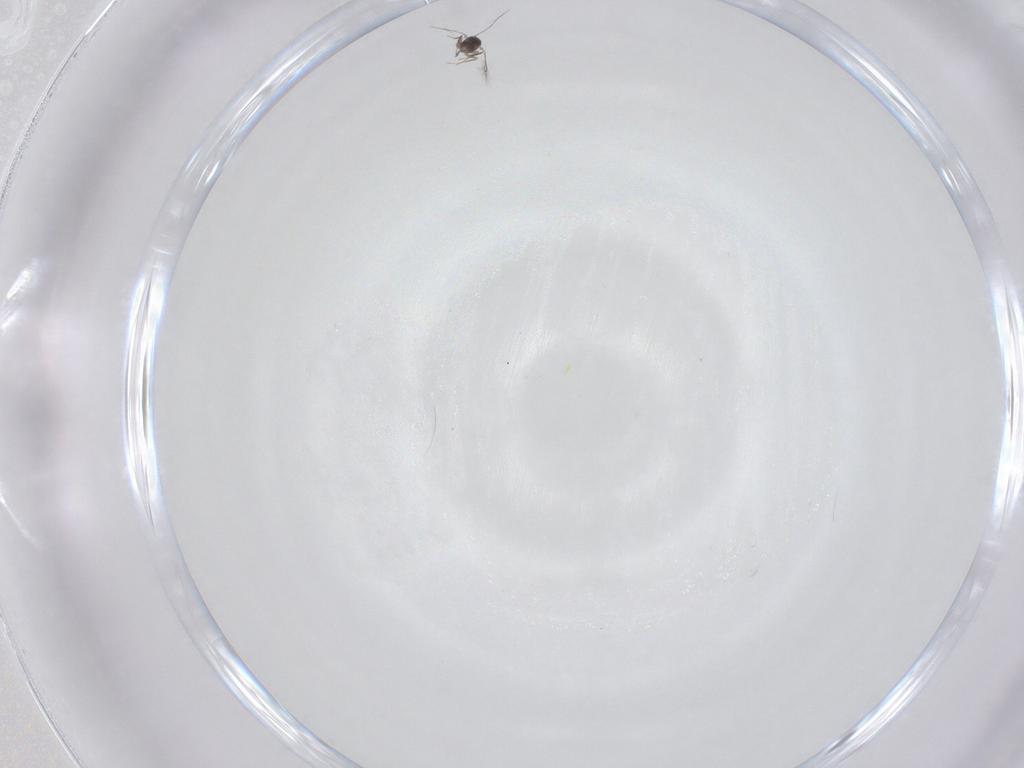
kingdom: Animalia
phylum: Arthropoda
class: Insecta
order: Hymenoptera
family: Mymaridae
